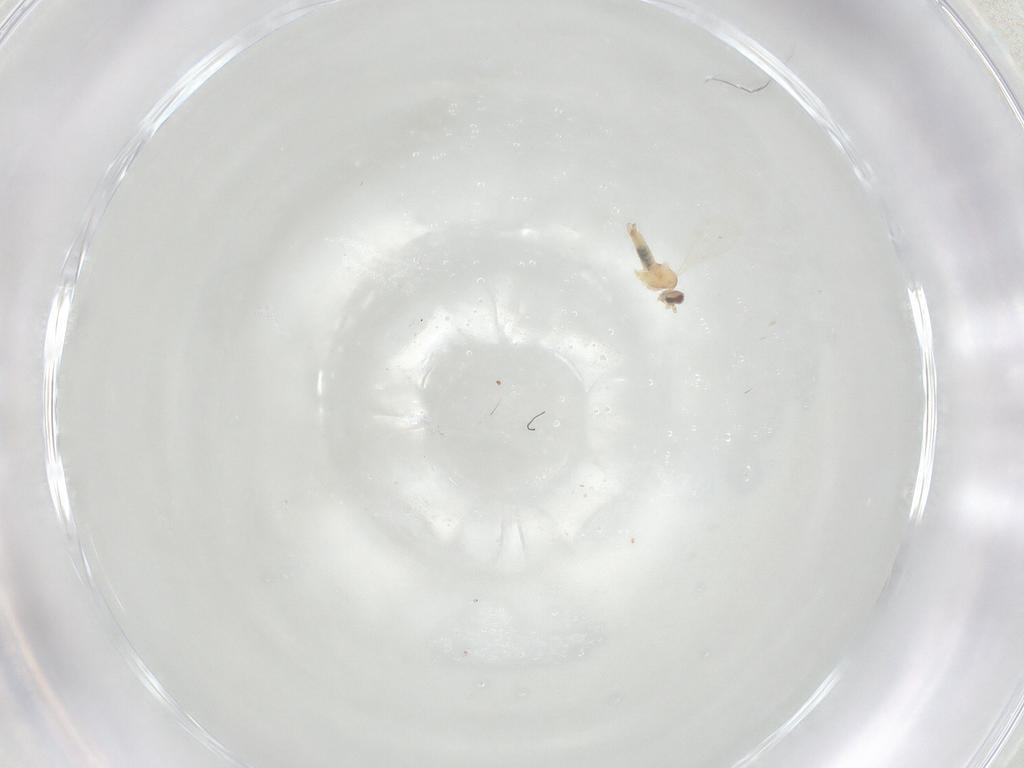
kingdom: Animalia
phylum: Arthropoda
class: Insecta
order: Diptera
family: Cecidomyiidae
